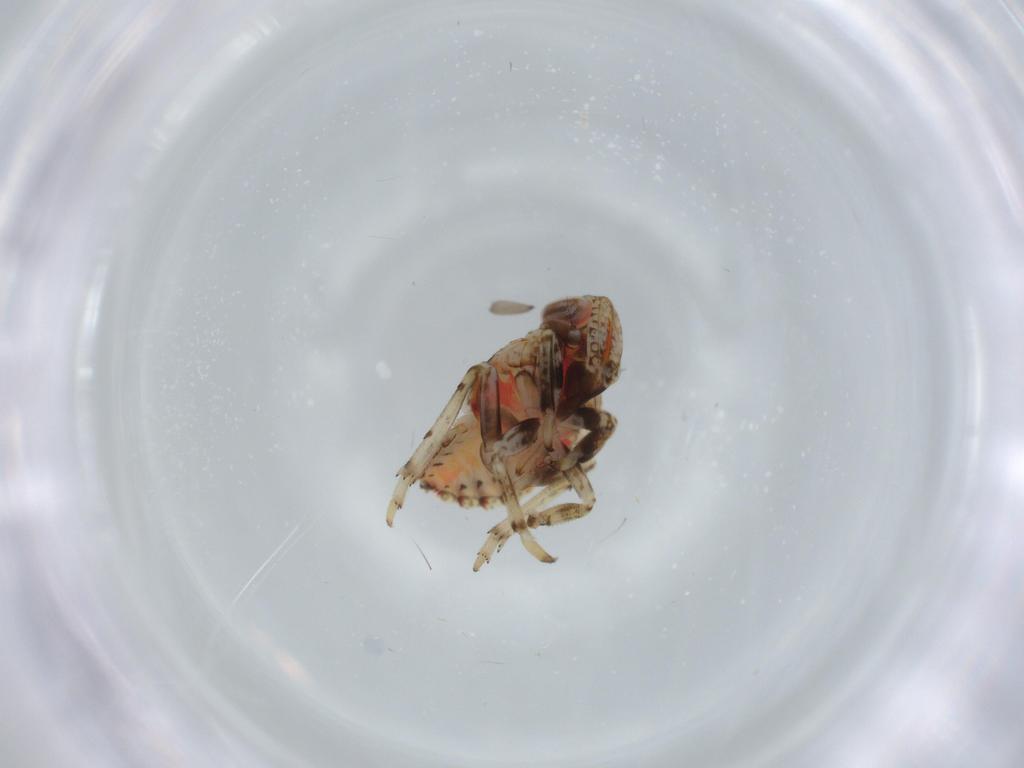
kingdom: Animalia
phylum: Arthropoda
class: Insecta
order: Hemiptera
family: Issidae
